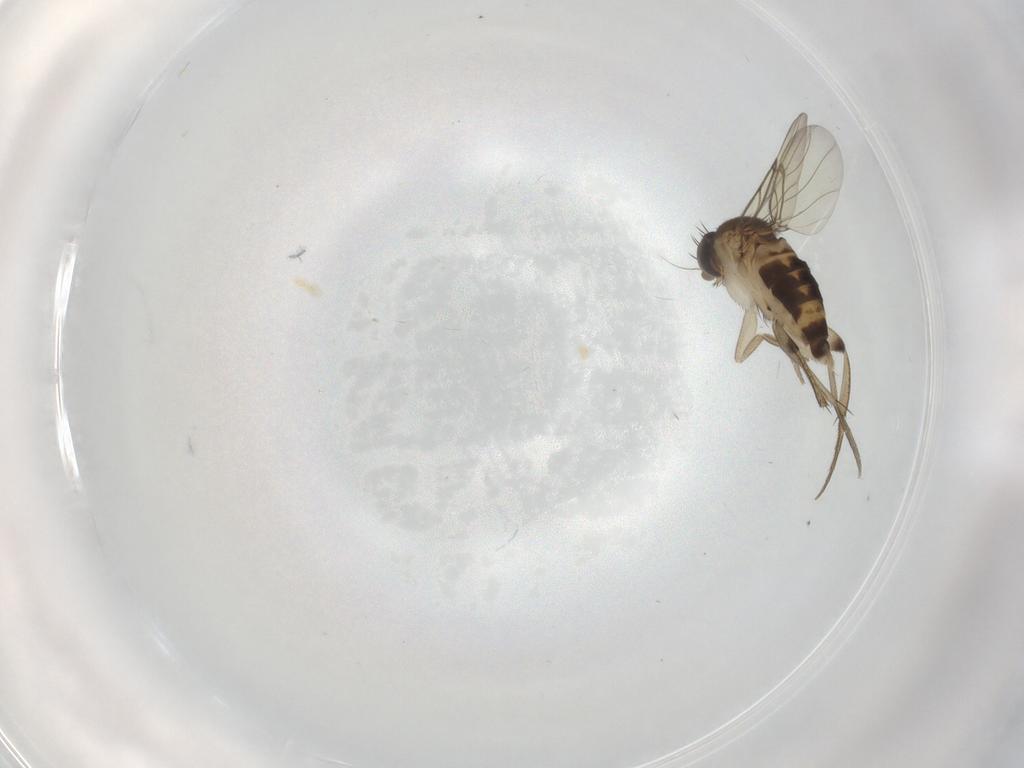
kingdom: Animalia
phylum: Arthropoda
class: Insecta
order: Diptera
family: Phoridae
